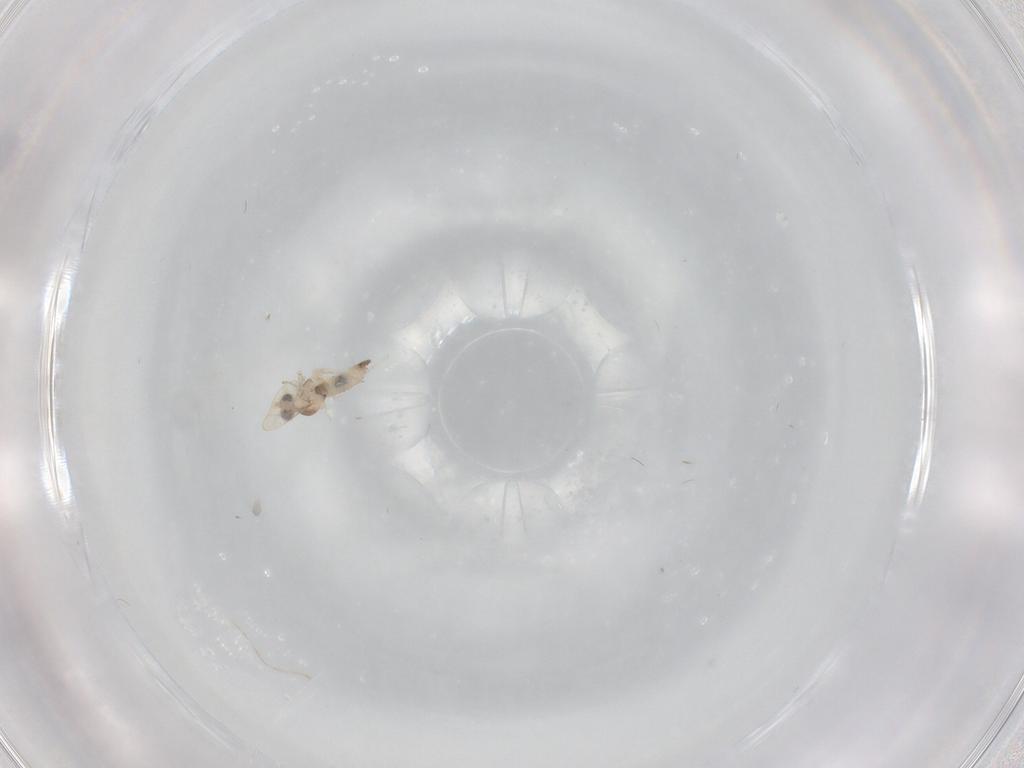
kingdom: Animalia
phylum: Arthropoda
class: Insecta
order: Diptera
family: Cecidomyiidae
